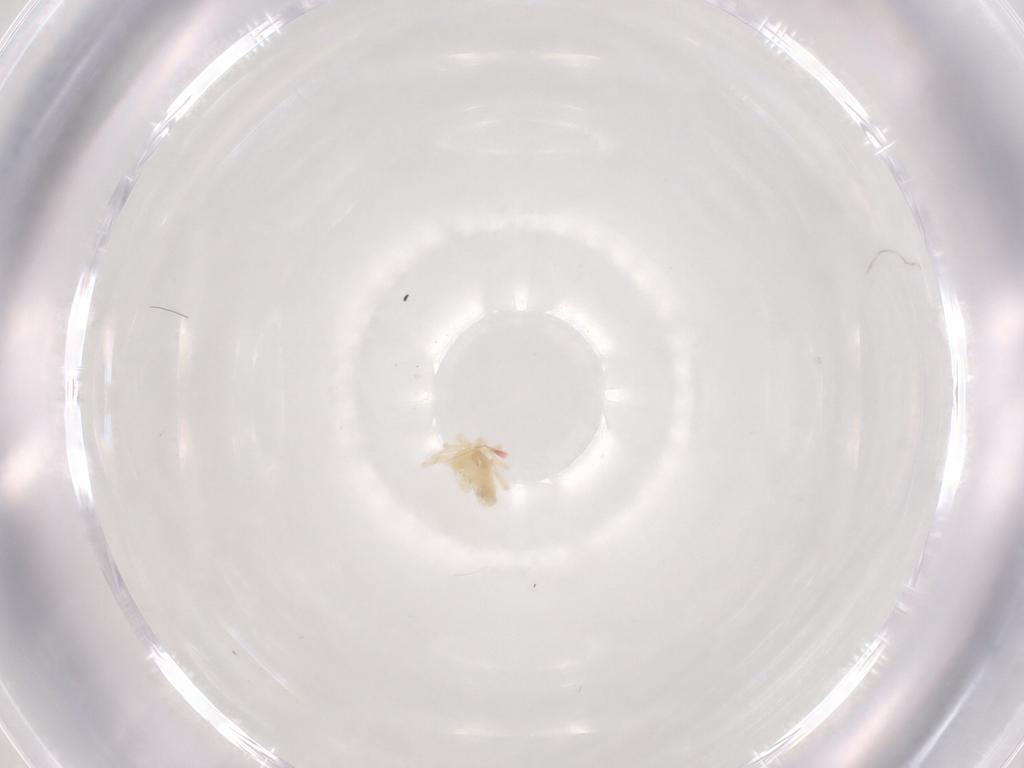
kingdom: Animalia
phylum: Arthropoda
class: Arachnida
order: Trombidiformes
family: Anystidae
